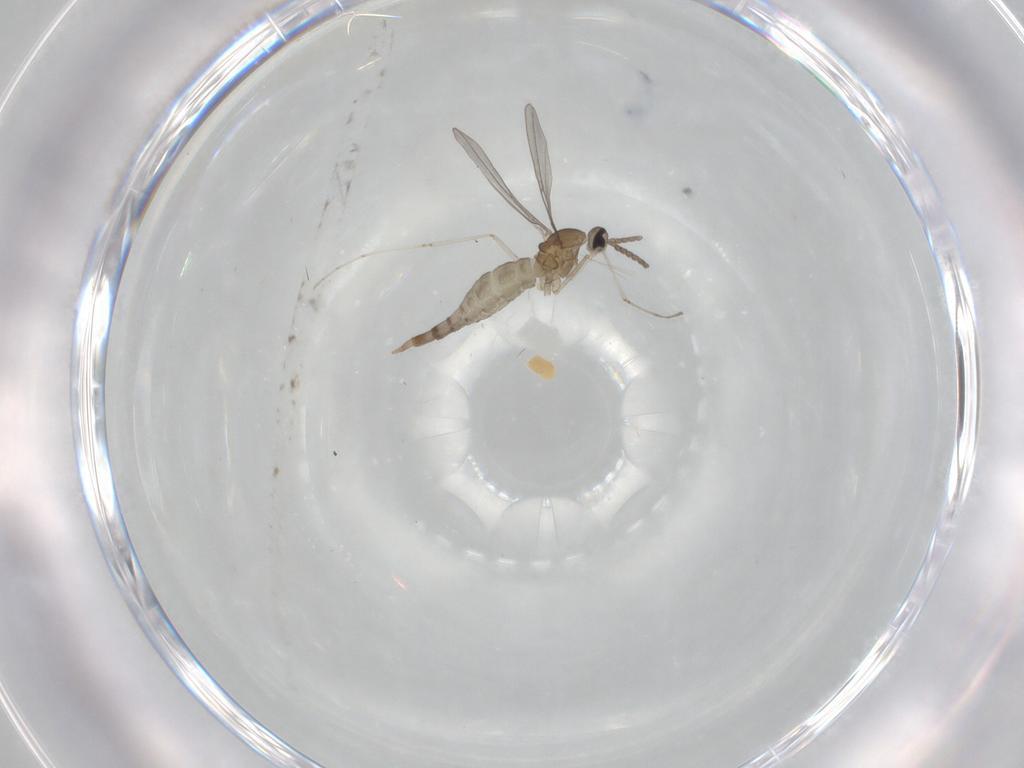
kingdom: Animalia
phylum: Arthropoda
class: Insecta
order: Diptera
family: Cecidomyiidae
